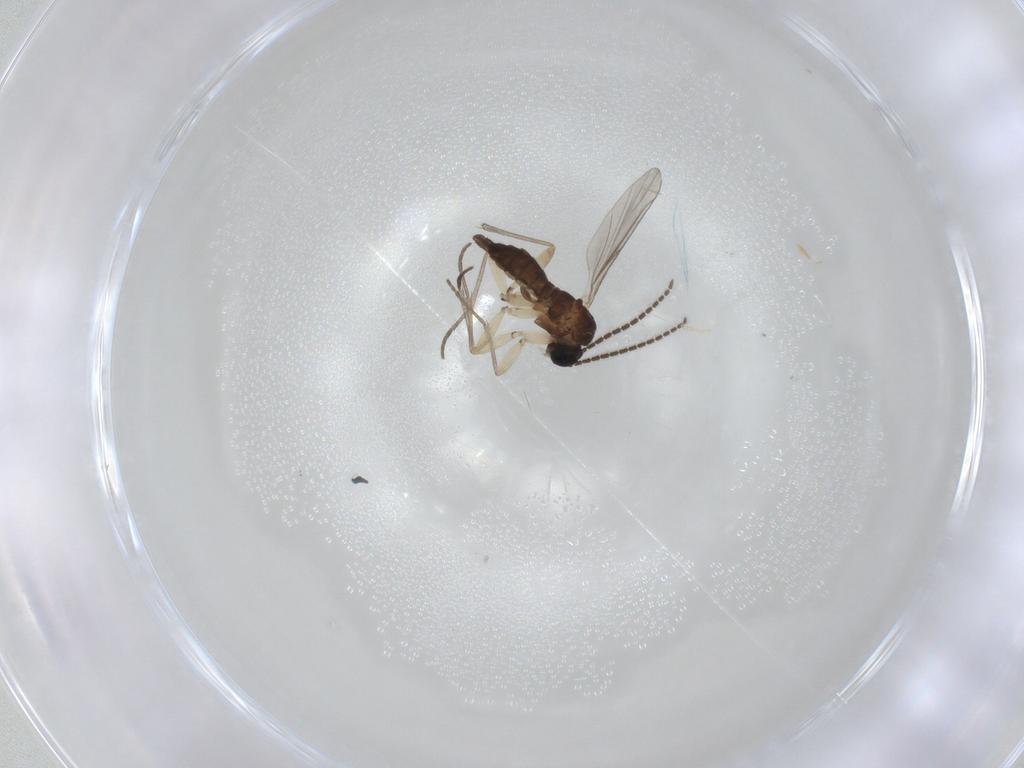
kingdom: Animalia
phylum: Arthropoda
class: Insecta
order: Diptera
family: Sciaridae
